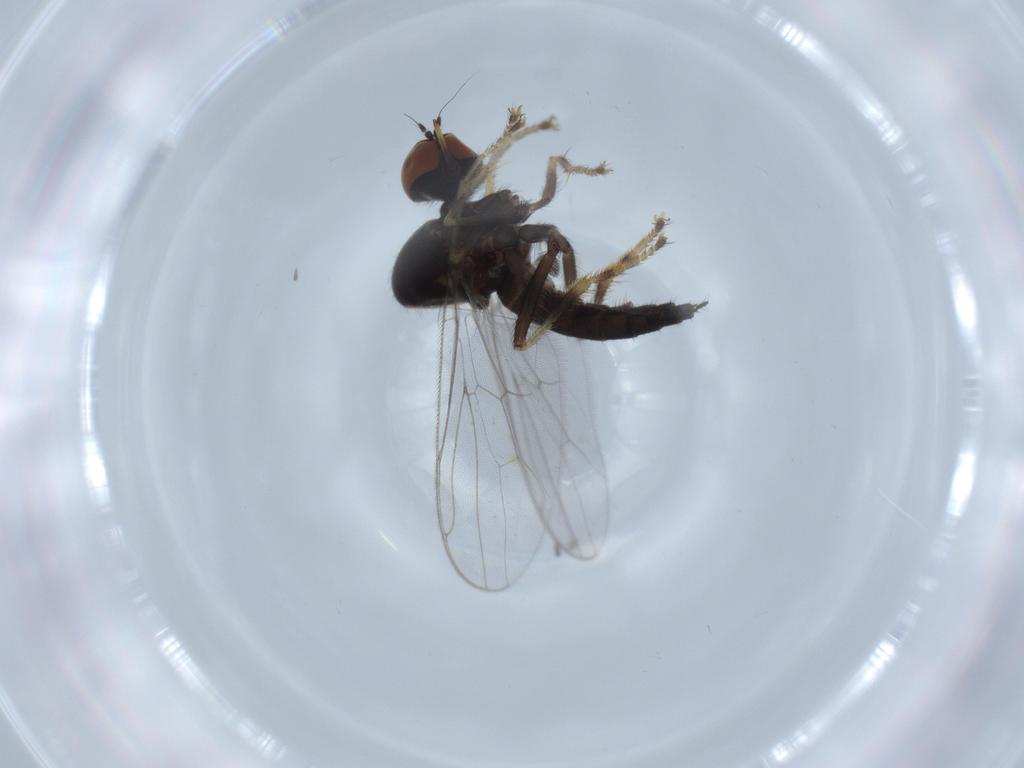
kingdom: Animalia
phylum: Arthropoda
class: Insecta
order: Diptera
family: Hybotidae
